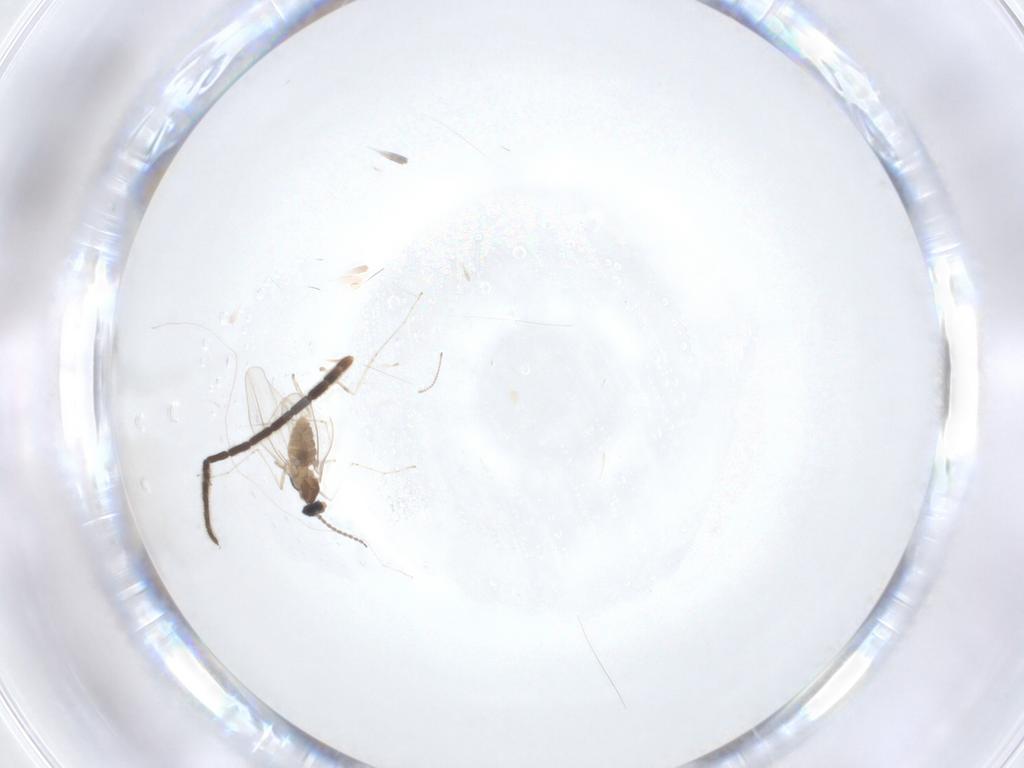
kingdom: Animalia
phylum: Arthropoda
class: Insecta
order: Diptera
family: Sciaridae
